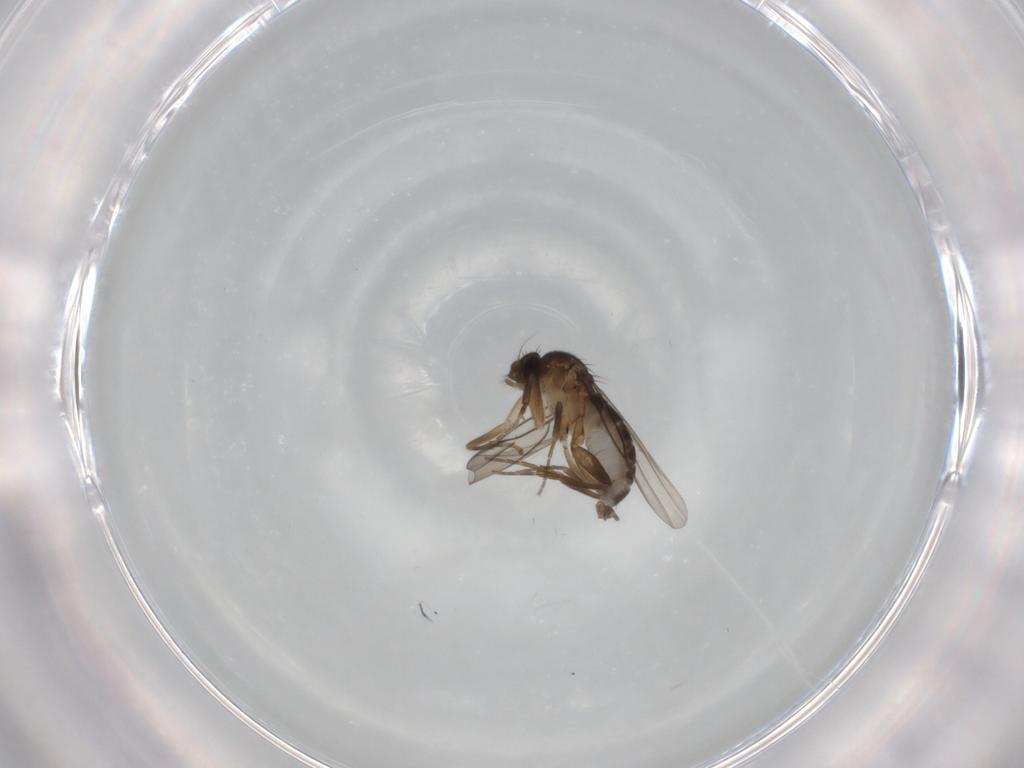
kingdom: Animalia
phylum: Arthropoda
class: Insecta
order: Diptera
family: Phoridae
